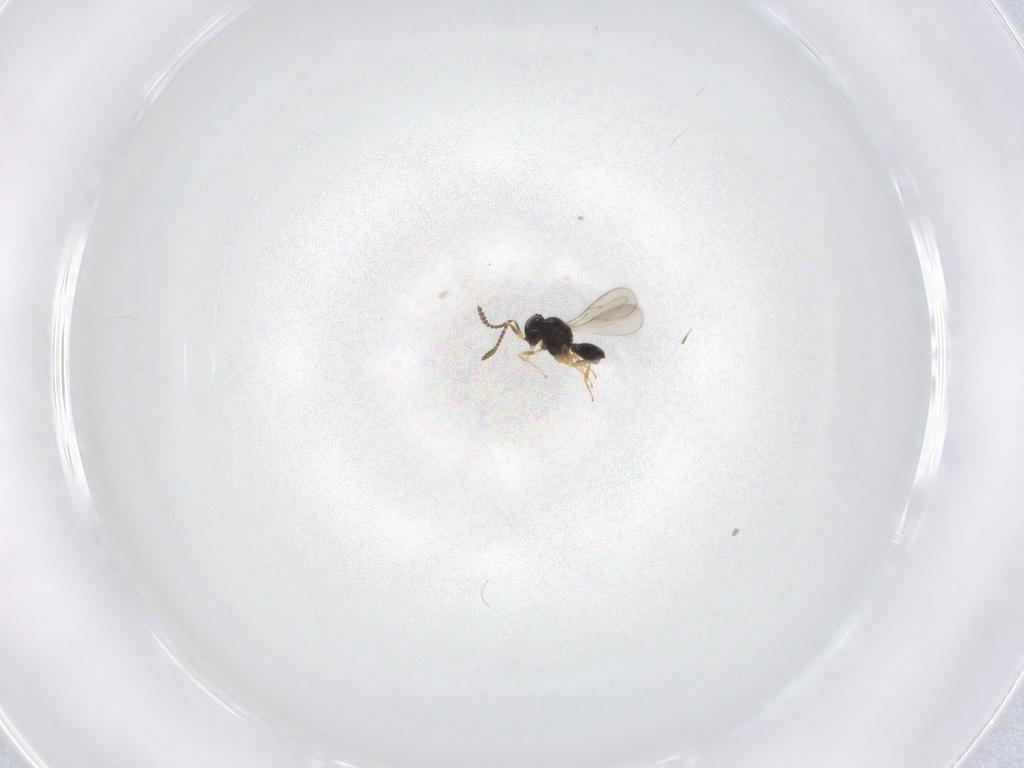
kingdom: Animalia
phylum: Arthropoda
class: Insecta
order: Hymenoptera
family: Scelionidae
